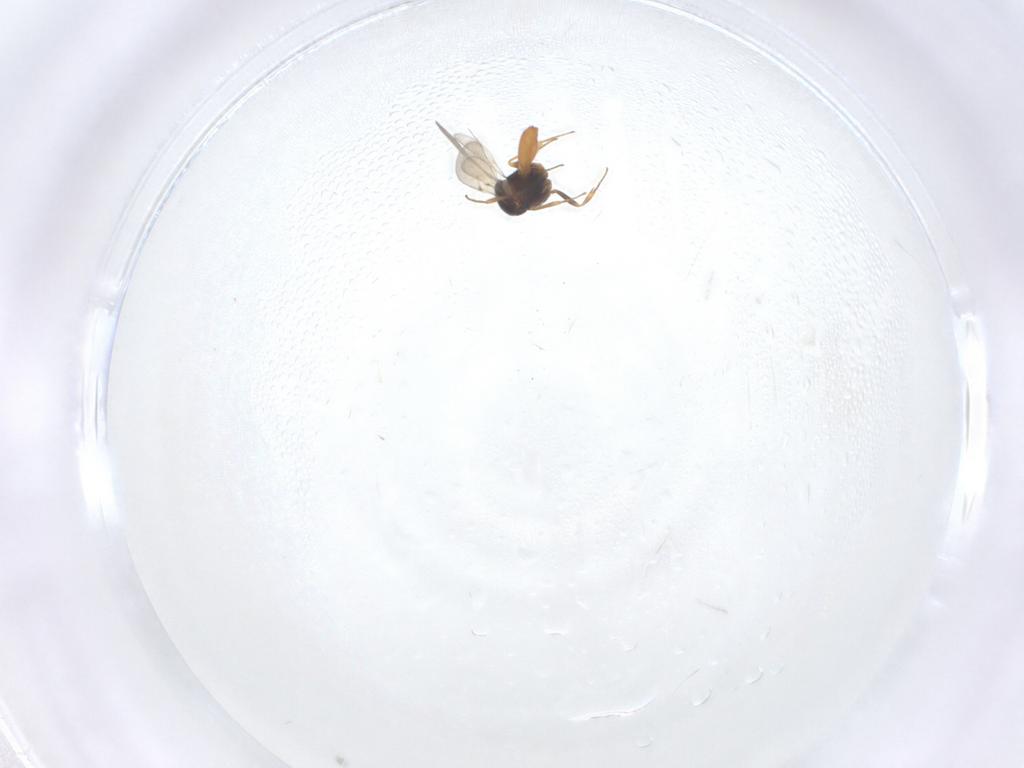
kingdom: Animalia
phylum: Arthropoda
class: Insecta
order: Hymenoptera
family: Scelionidae
